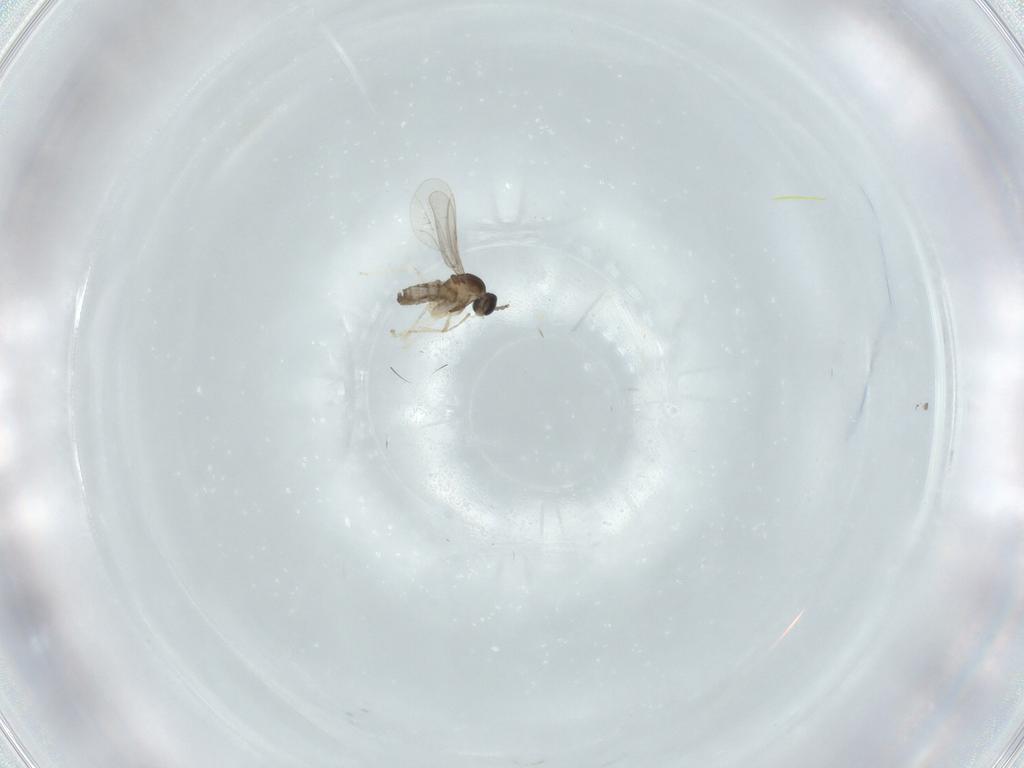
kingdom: Animalia
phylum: Arthropoda
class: Insecta
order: Diptera
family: Cecidomyiidae
